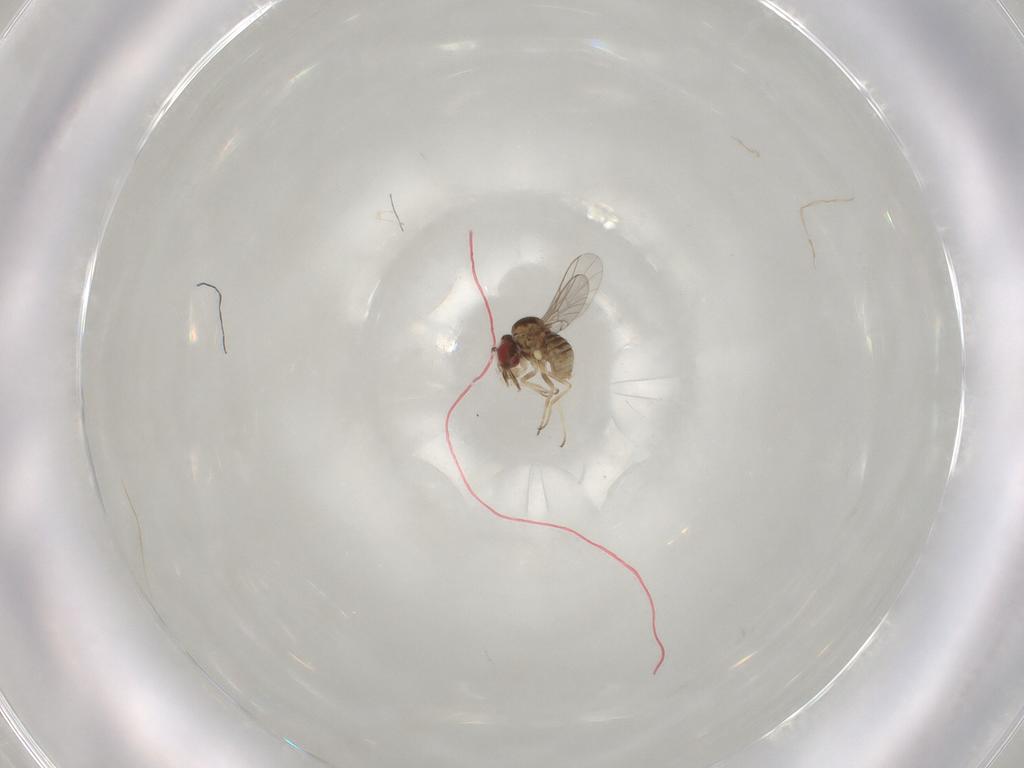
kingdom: Animalia
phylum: Arthropoda
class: Insecta
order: Diptera
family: Mythicomyiidae
